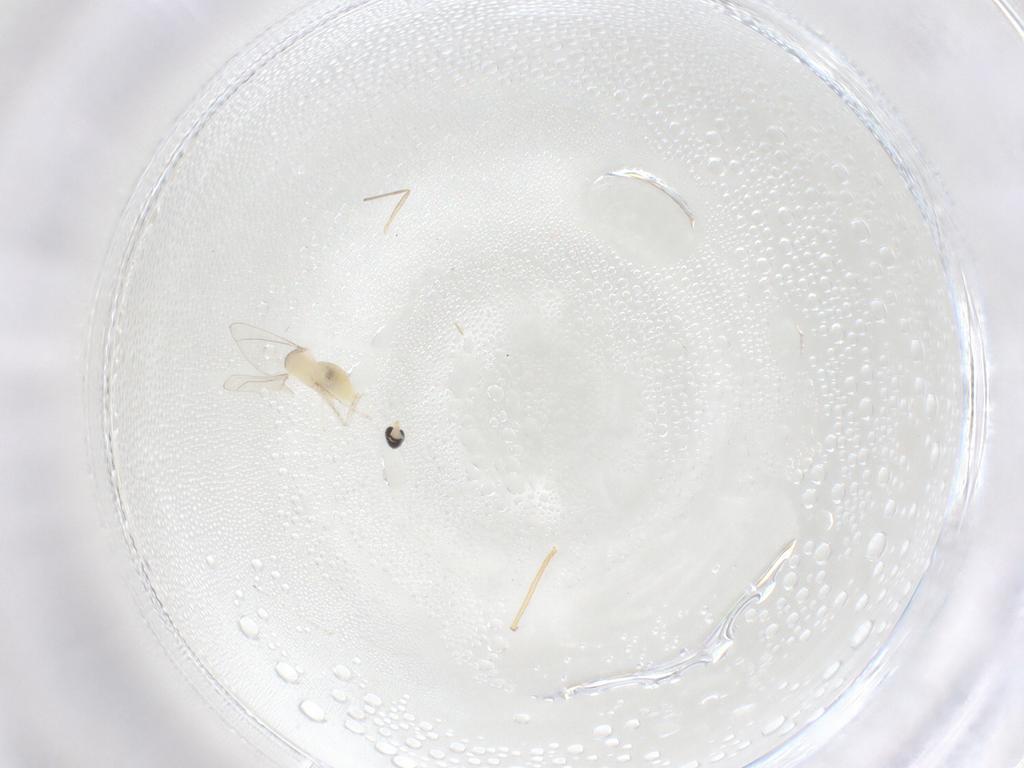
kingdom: Animalia
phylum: Arthropoda
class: Insecta
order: Diptera
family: Cecidomyiidae
